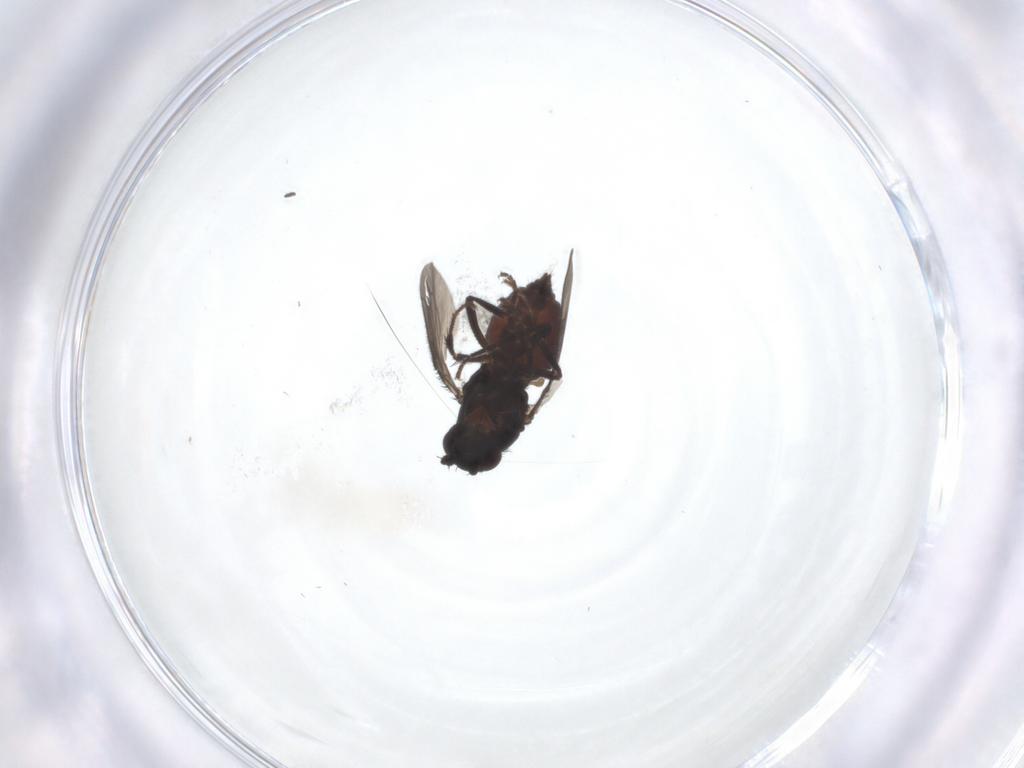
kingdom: Animalia
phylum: Arthropoda
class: Insecta
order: Diptera
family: Sphaeroceridae
